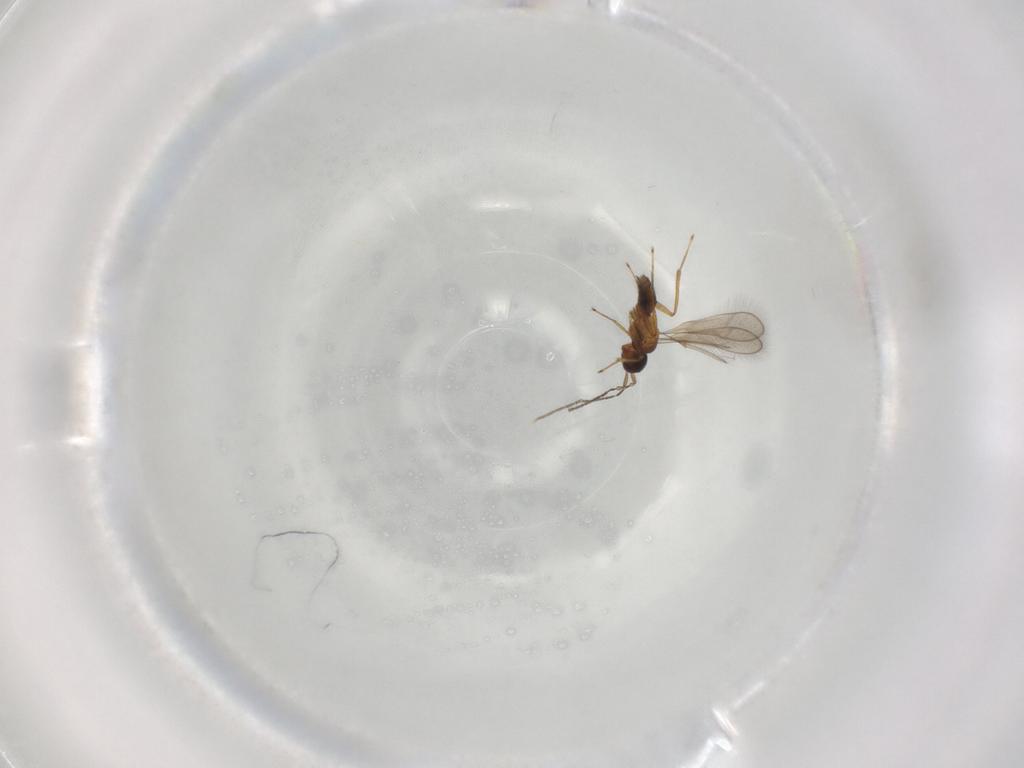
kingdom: Animalia
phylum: Arthropoda
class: Insecta
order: Hymenoptera
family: Mymaridae
